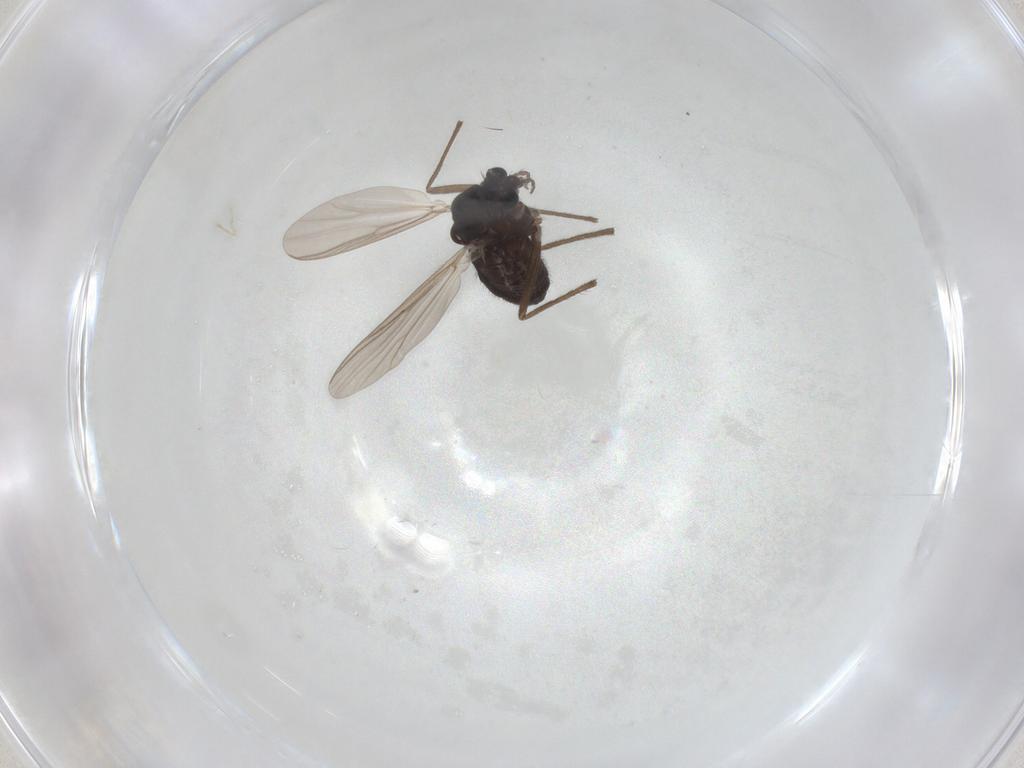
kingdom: Animalia
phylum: Arthropoda
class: Insecta
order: Diptera
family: Chironomidae
